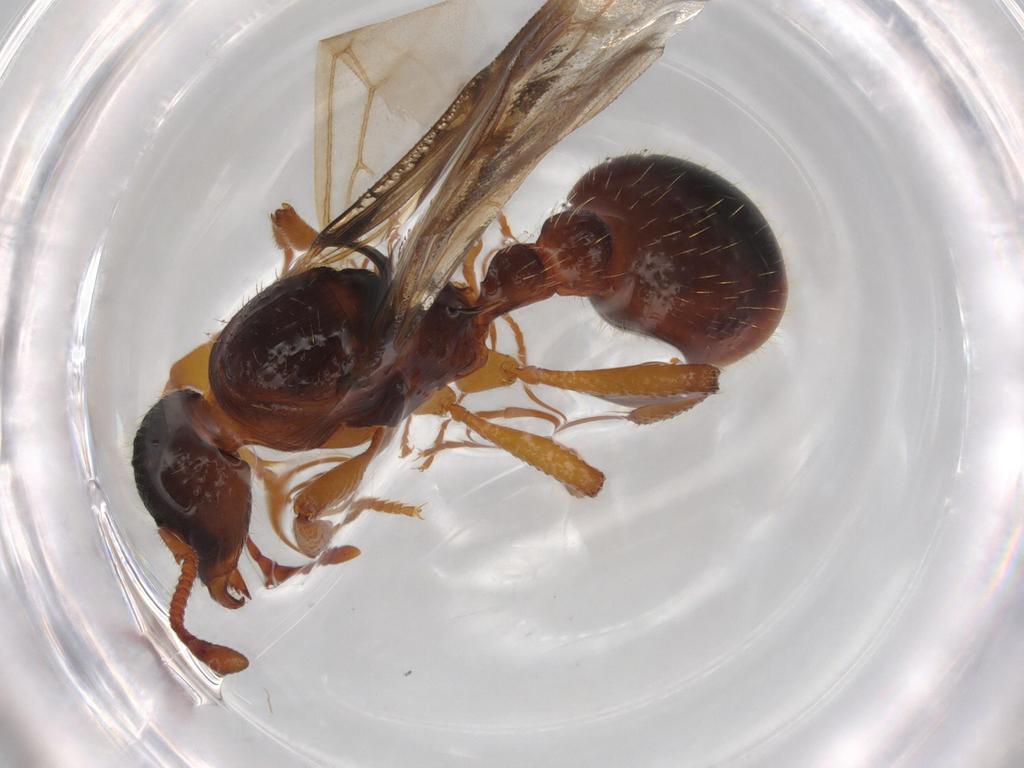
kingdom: Animalia
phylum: Arthropoda
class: Insecta
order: Hymenoptera
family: Formicidae
